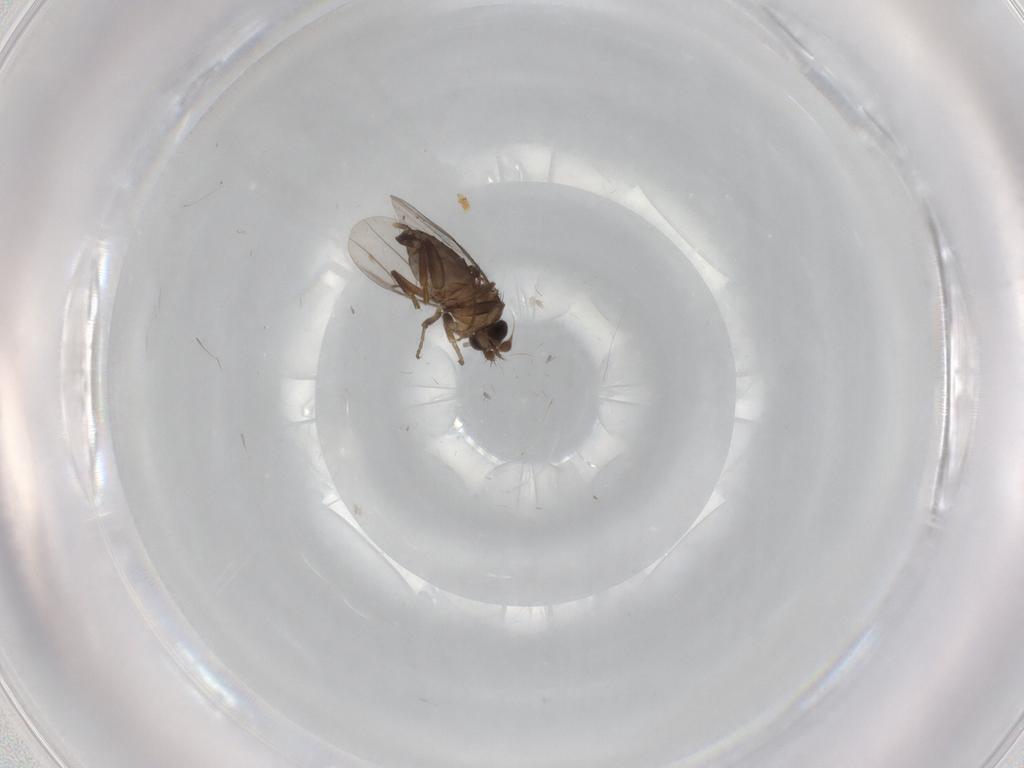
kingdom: Animalia
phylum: Arthropoda
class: Insecta
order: Diptera
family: Phoridae
